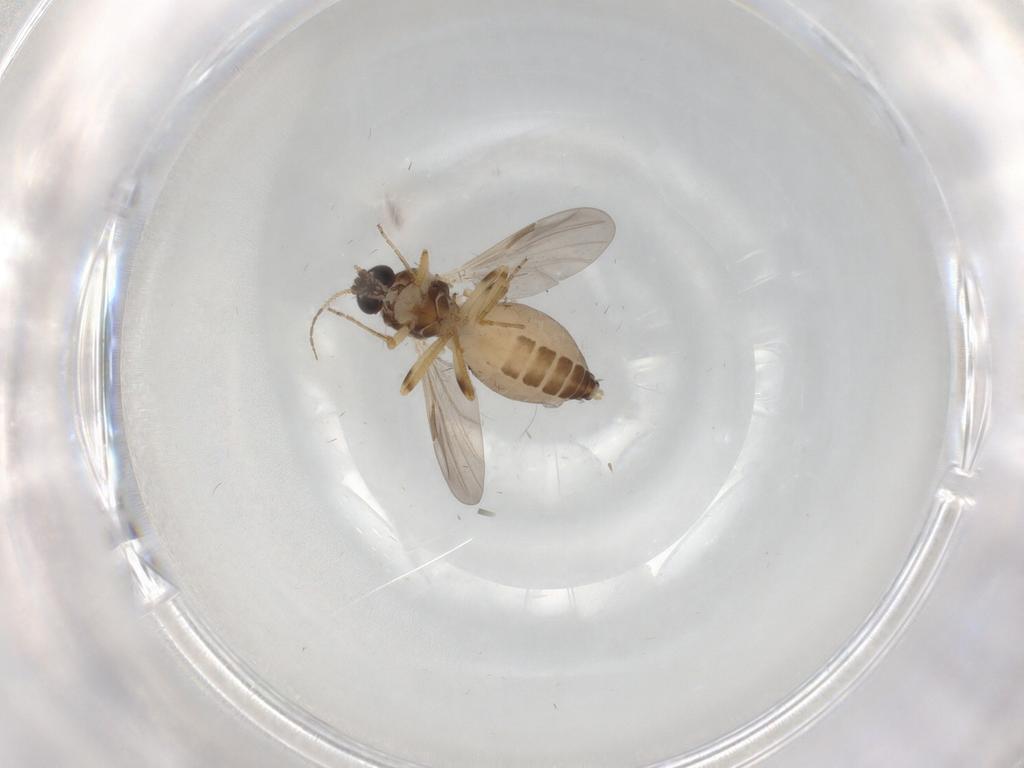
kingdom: Animalia
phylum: Arthropoda
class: Insecta
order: Diptera
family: Ceratopogonidae
